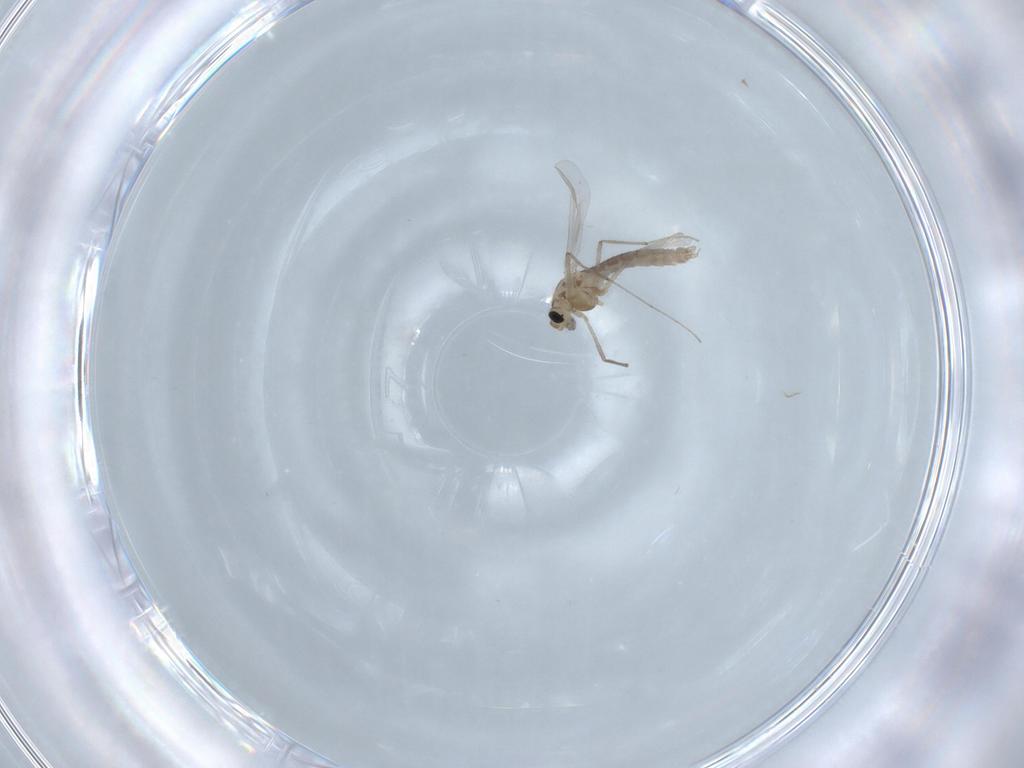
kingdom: Animalia
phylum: Arthropoda
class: Insecta
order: Diptera
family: Chironomidae
